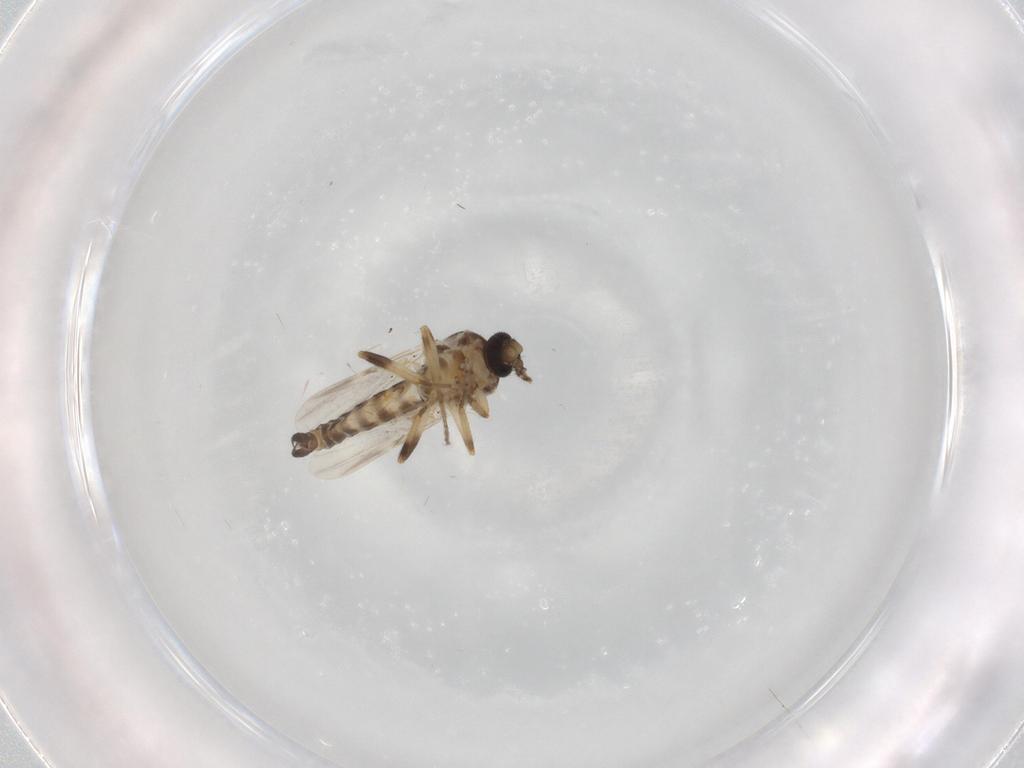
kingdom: Animalia
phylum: Arthropoda
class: Insecta
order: Diptera
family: Ceratopogonidae
